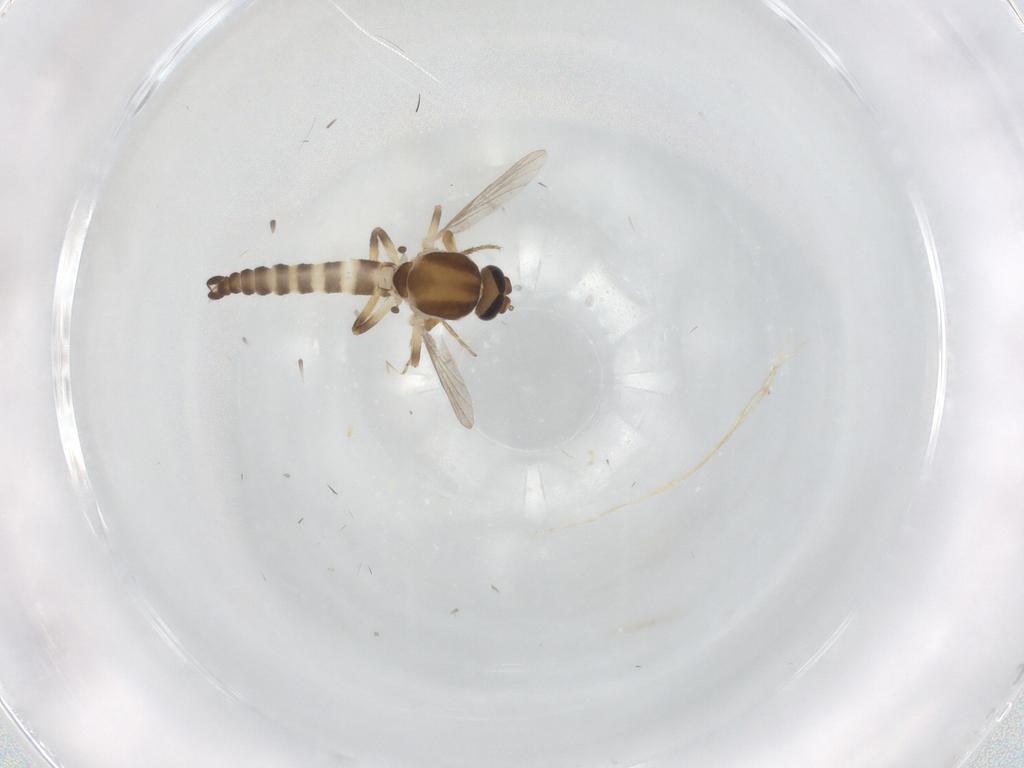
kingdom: Animalia
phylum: Arthropoda
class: Insecta
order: Diptera
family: Ceratopogonidae
